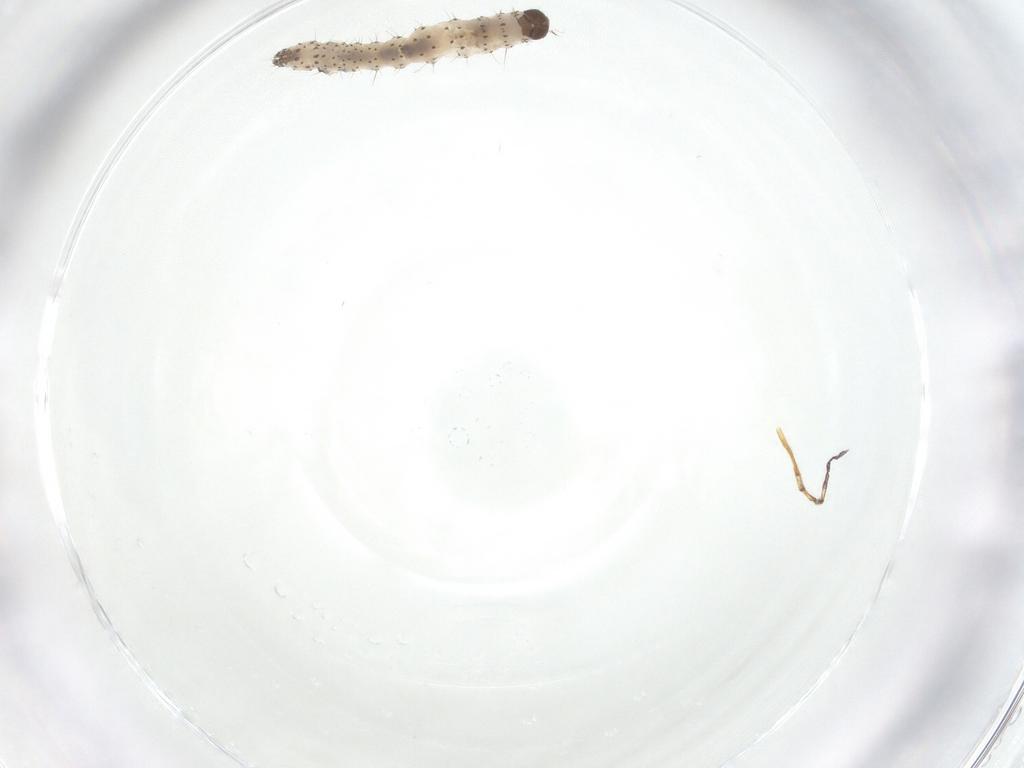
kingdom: Animalia
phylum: Arthropoda
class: Insecta
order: Lepidoptera
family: Noctuidae
